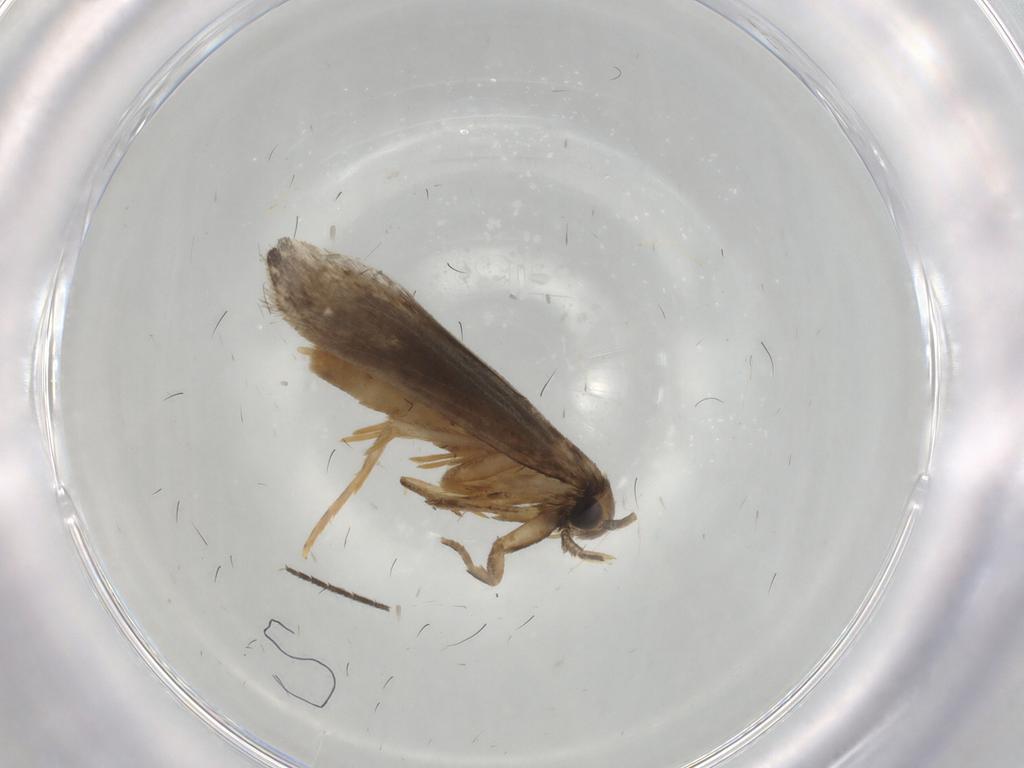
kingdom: Animalia
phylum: Arthropoda
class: Insecta
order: Lepidoptera
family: Tineidae
